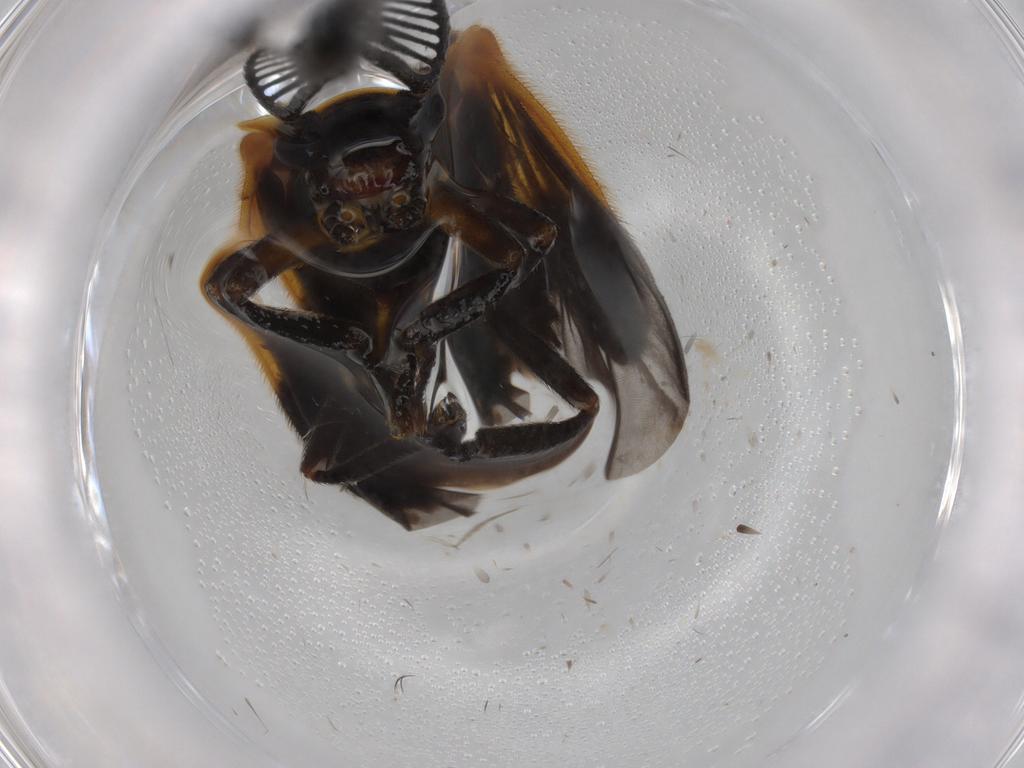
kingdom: Animalia
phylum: Arthropoda
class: Insecta
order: Coleoptera
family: Lampyridae
